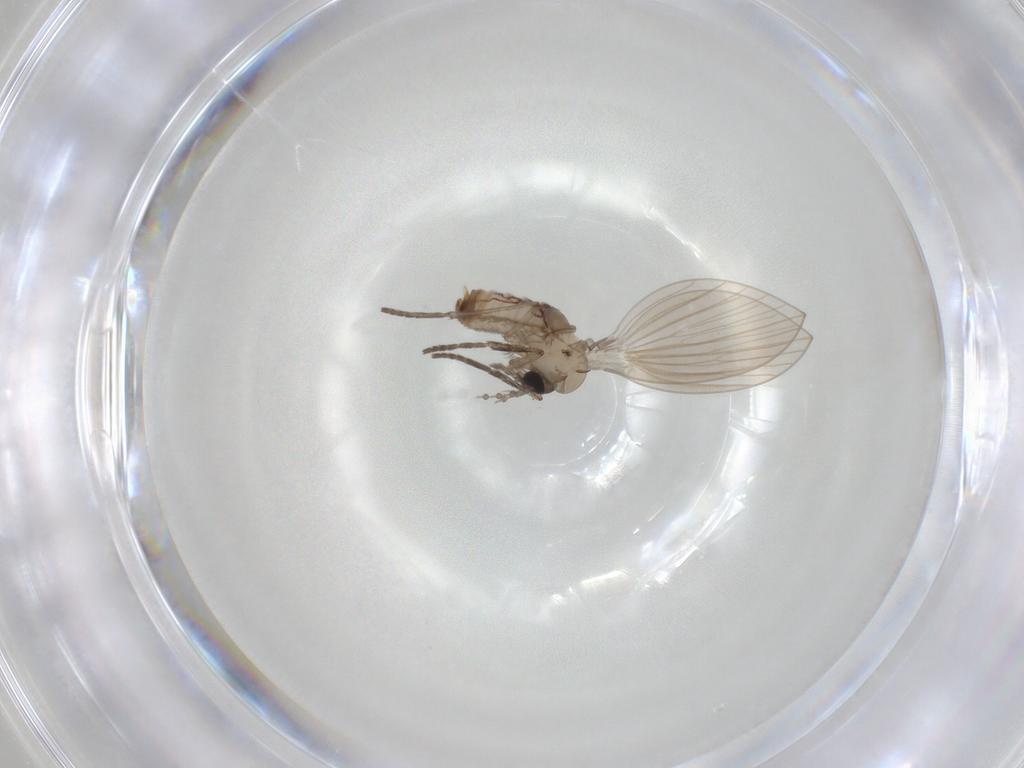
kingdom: Animalia
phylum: Arthropoda
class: Insecta
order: Diptera
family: Psychodidae
